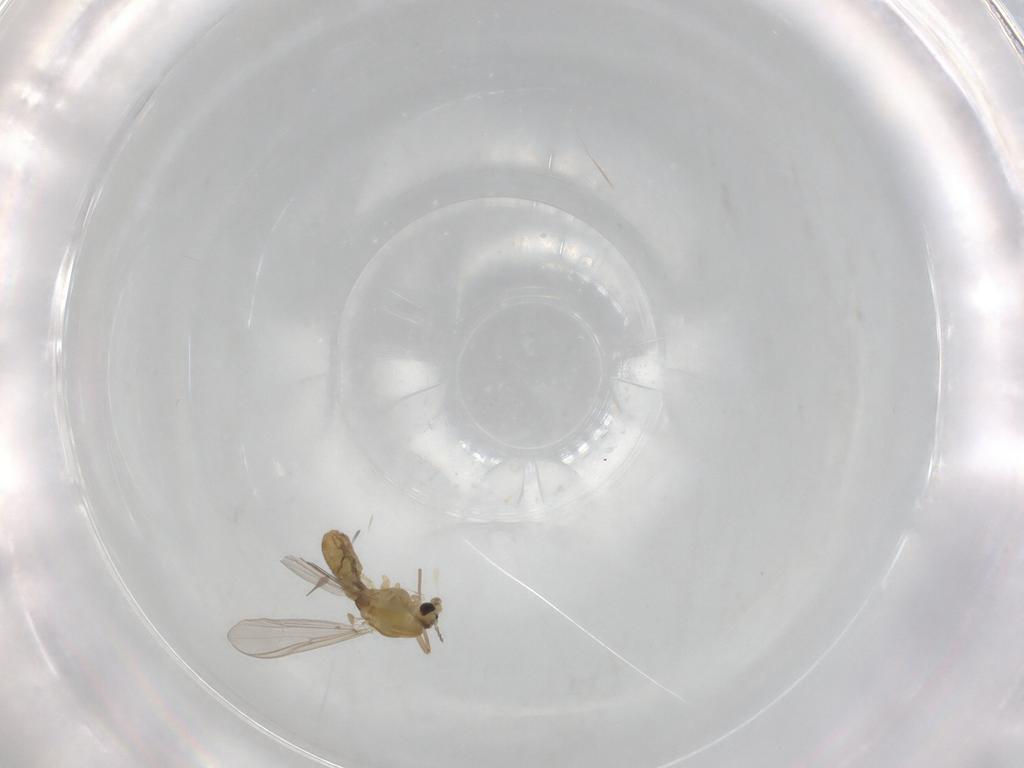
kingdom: Animalia
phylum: Arthropoda
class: Insecta
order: Diptera
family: Chironomidae
